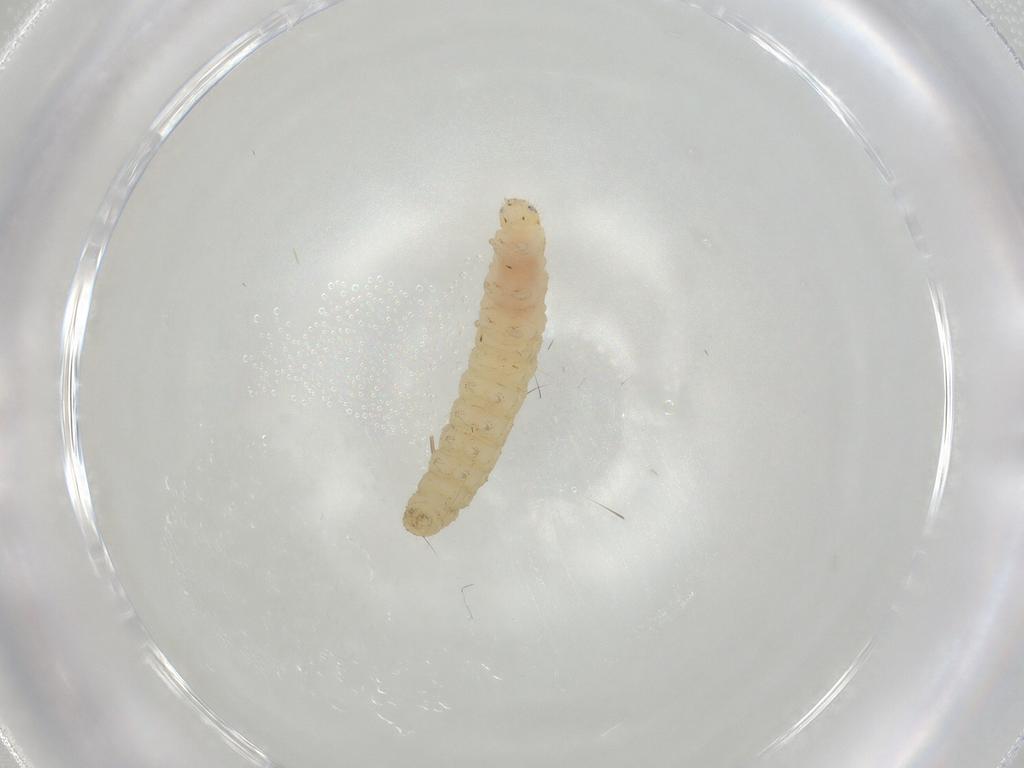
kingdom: Animalia
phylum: Arthropoda
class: Insecta
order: Lepidoptera
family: Gelechiidae
